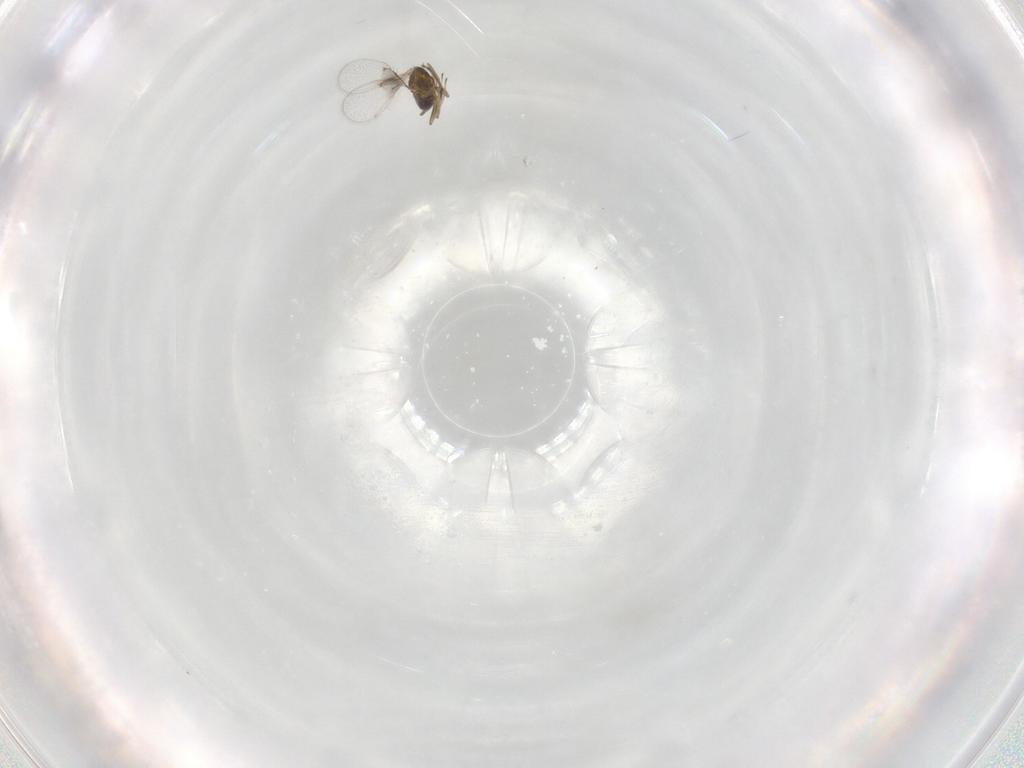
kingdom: Animalia
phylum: Arthropoda
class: Insecta
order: Hymenoptera
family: Trichogrammatidae
